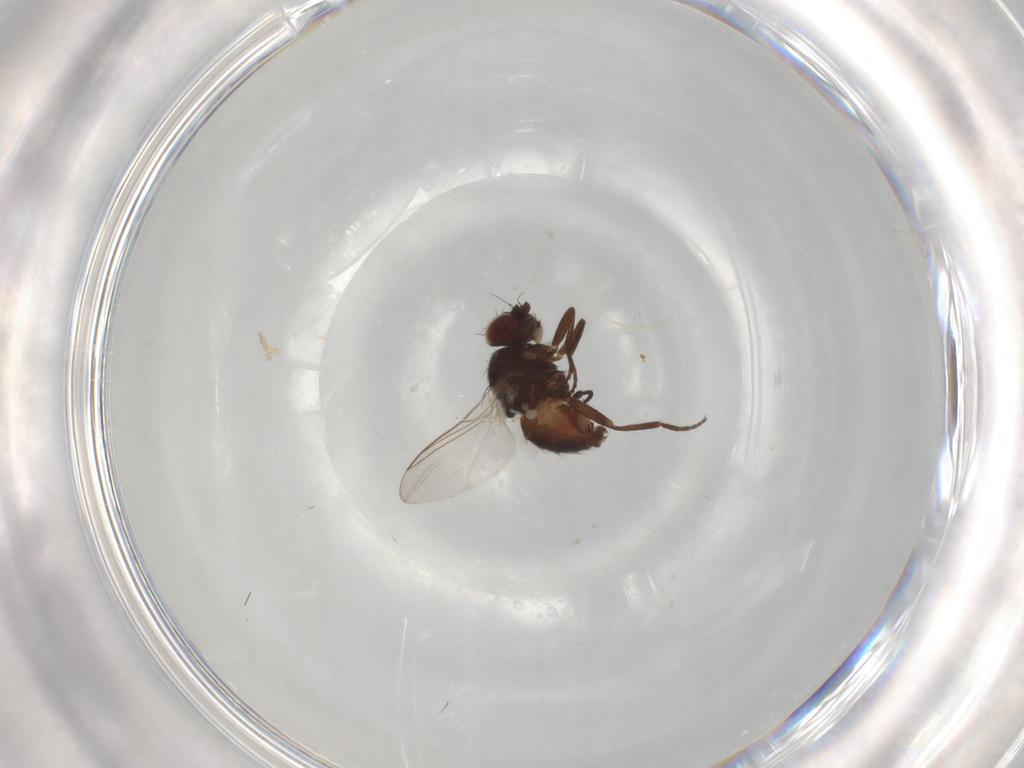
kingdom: Animalia
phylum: Arthropoda
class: Insecta
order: Diptera
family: Phoridae
